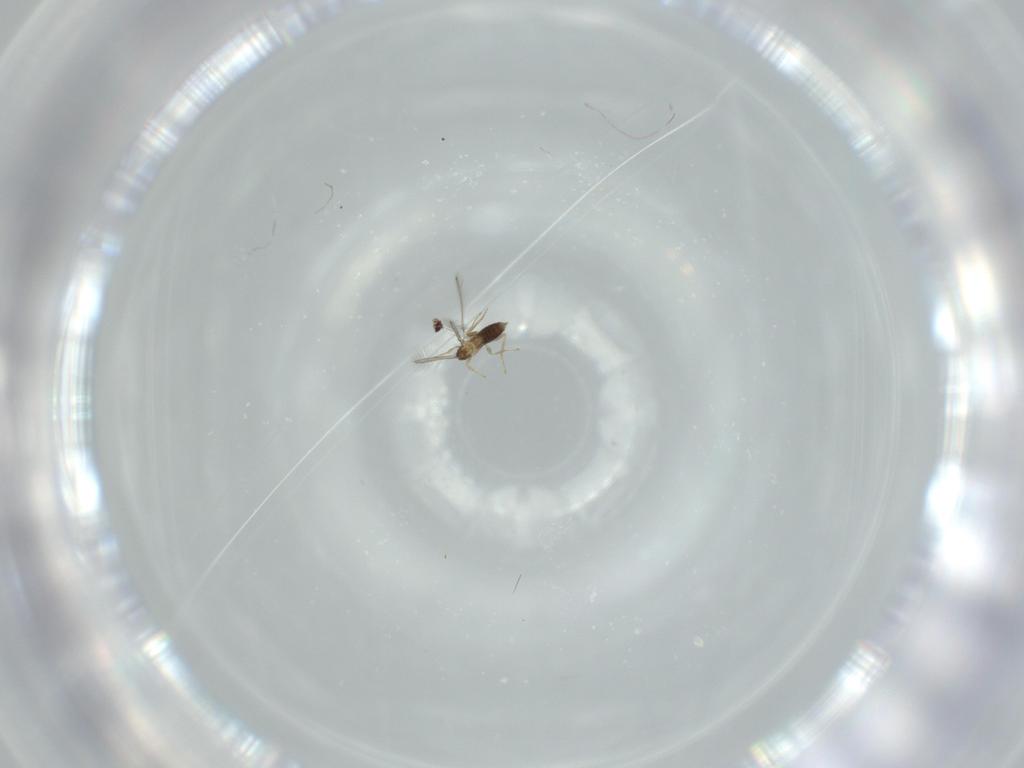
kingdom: Animalia
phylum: Arthropoda
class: Insecta
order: Hymenoptera
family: Mymaridae
